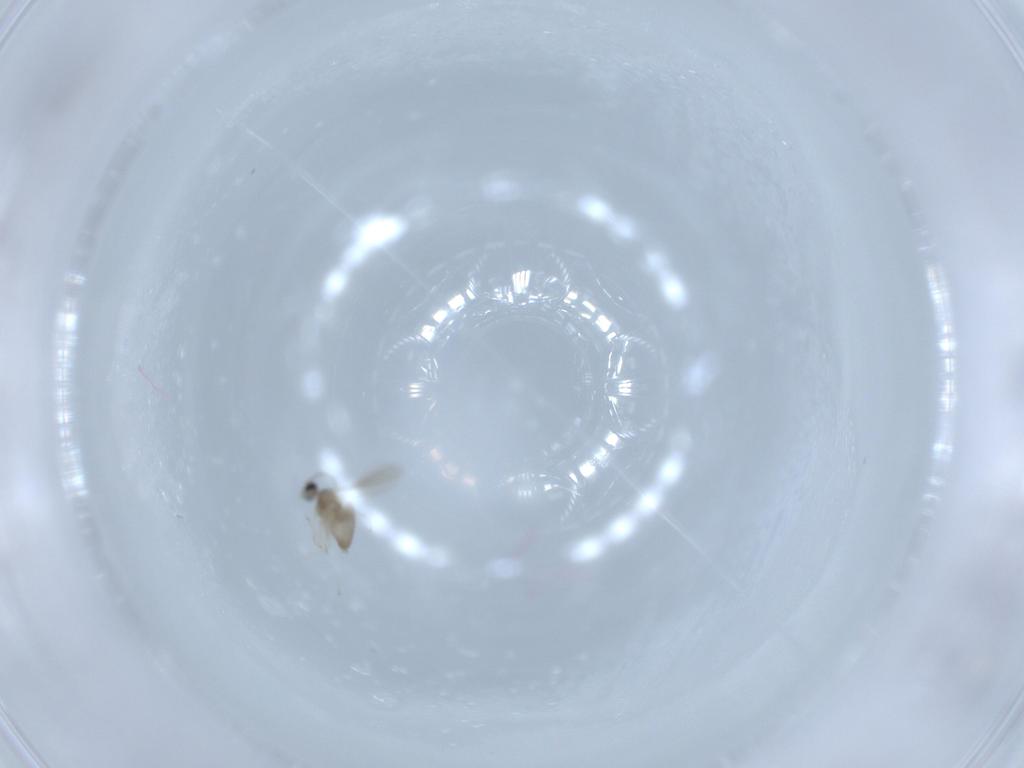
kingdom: Animalia
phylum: Arthropoda
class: Insecta
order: Diptera
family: Cecidomyiidae
